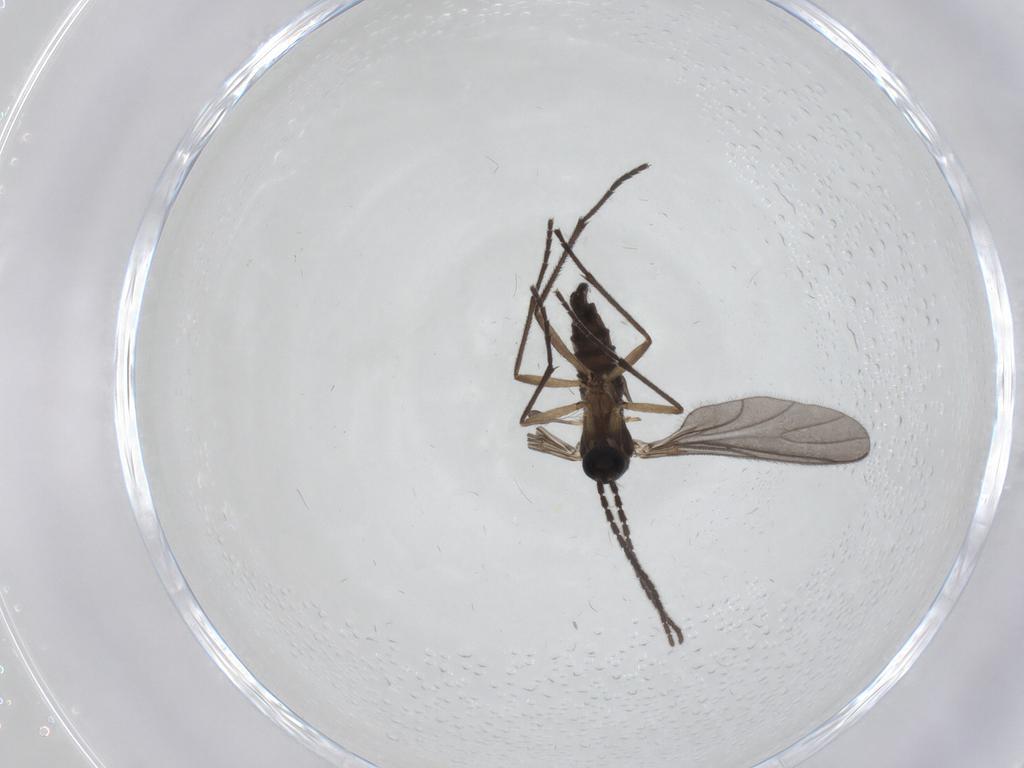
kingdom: Animalia
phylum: Arthropoda
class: Insecta
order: Diptera
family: Sciaridae
